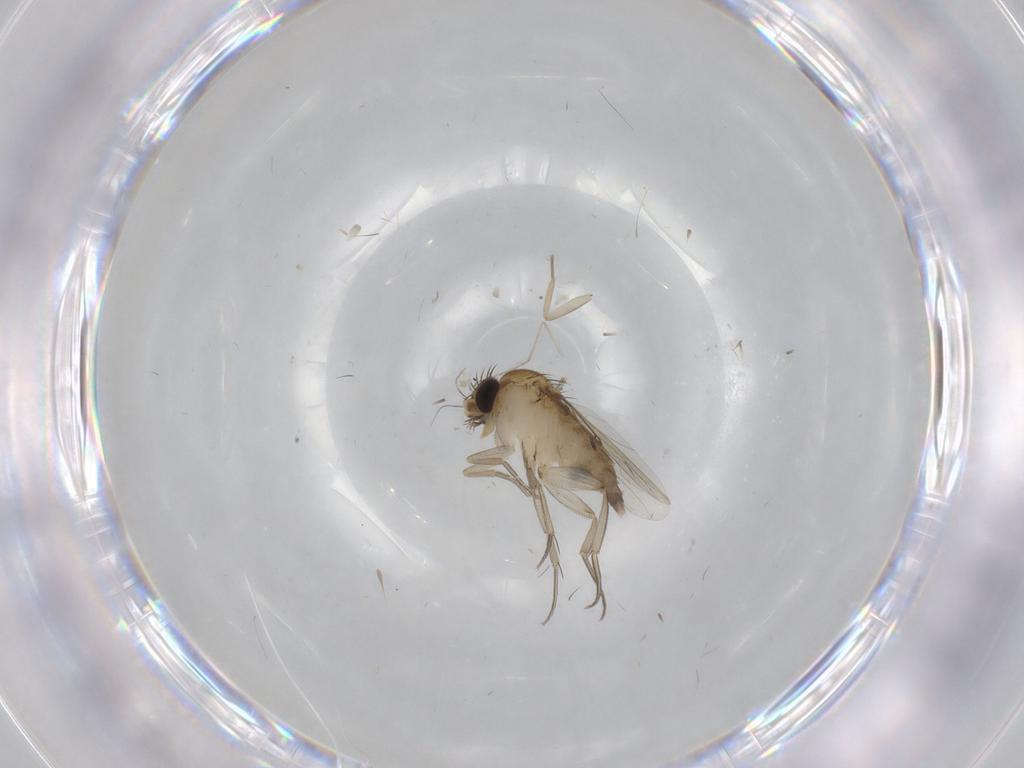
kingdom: Animalia
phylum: Arthropoda
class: Insecta
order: Diptera
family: Phoridae
